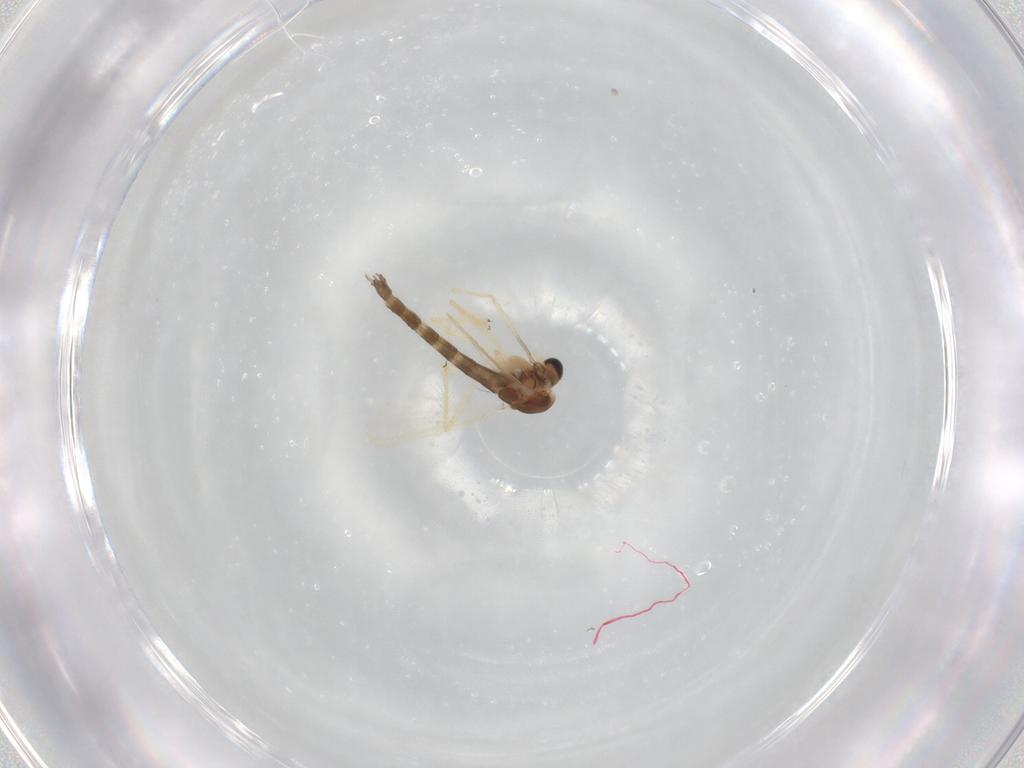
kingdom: Animalia
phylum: Arthropoda
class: Insecta
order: Diptera
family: Chironomidae
